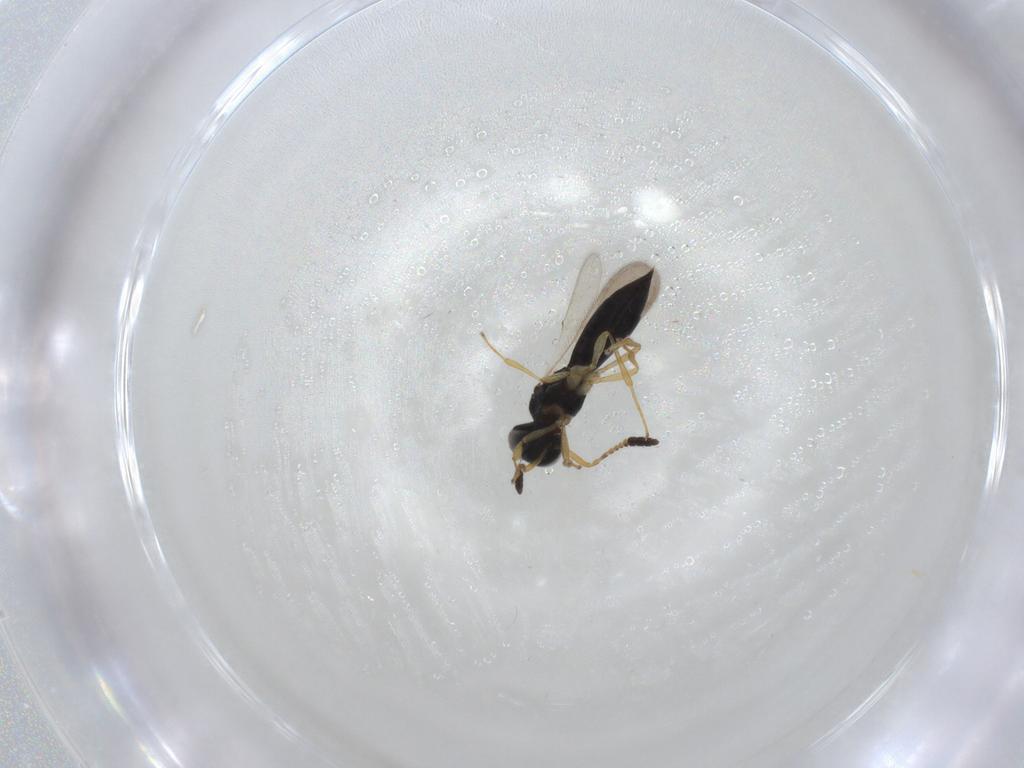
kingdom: Animalia
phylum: Arthropoda
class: Insecta
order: Hymenoptera
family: Scelionidae
